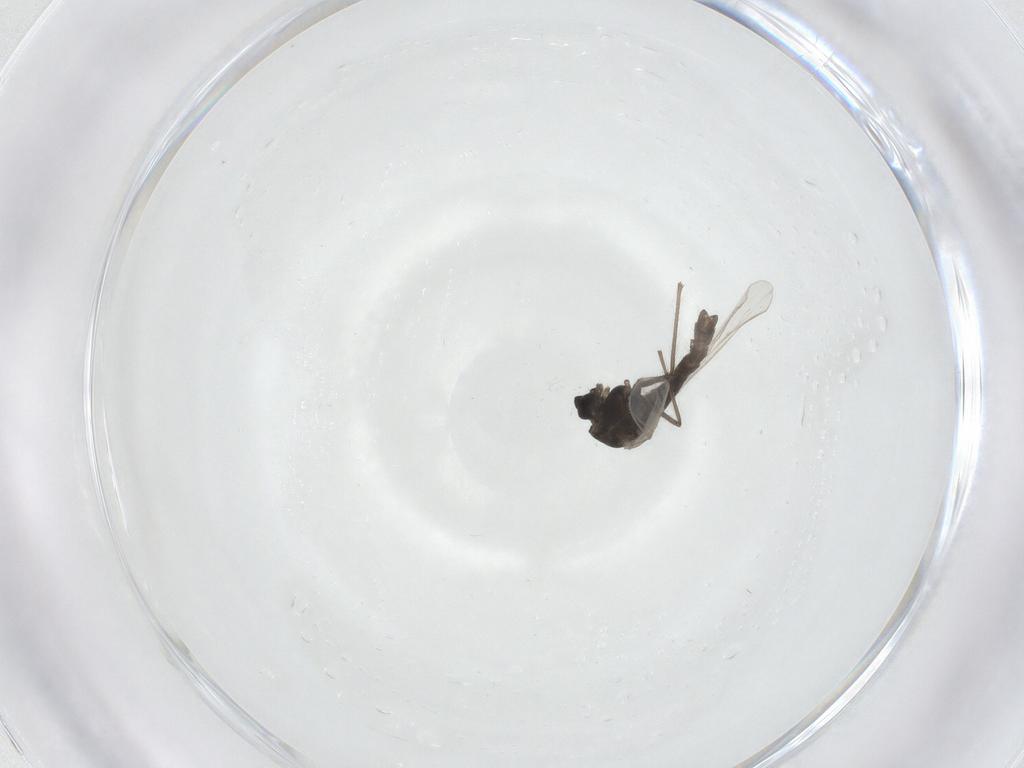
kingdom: Animalia
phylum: Arthropoda
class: Insecta
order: Diptera
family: Chironomidae
